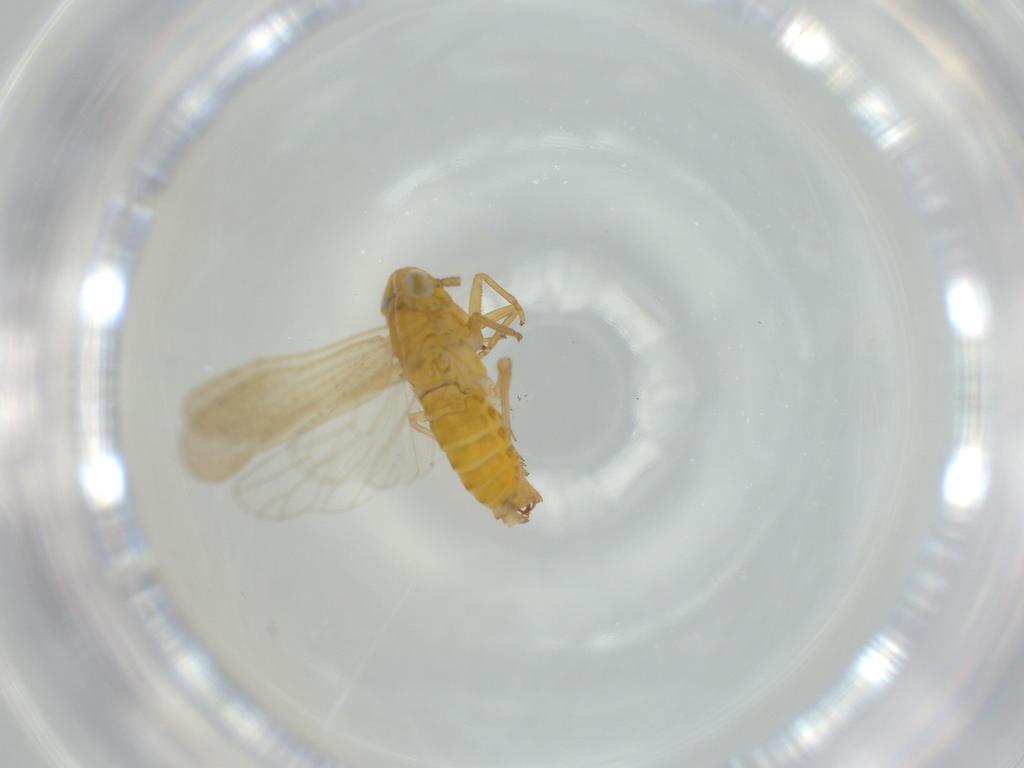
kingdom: Animalia
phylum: Arthropoda
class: Insecta
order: Hemiptera
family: Delphacidae
